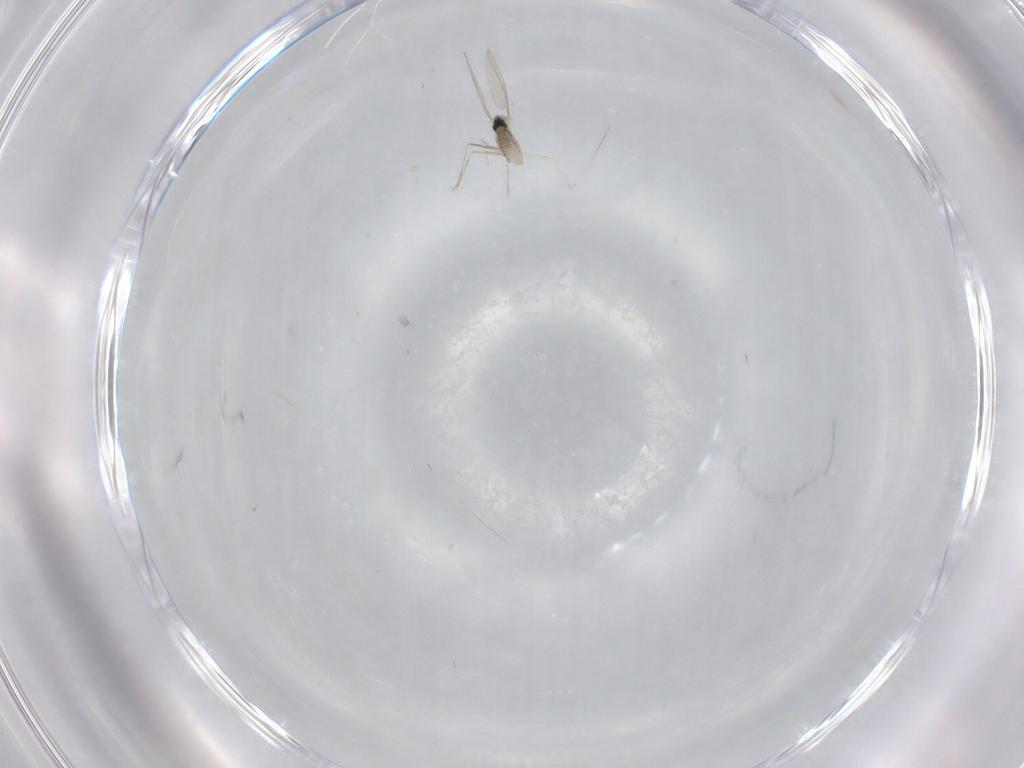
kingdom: Animalia
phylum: Arthropoda
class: Insecta
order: Diptera
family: Cecidomyiidae
